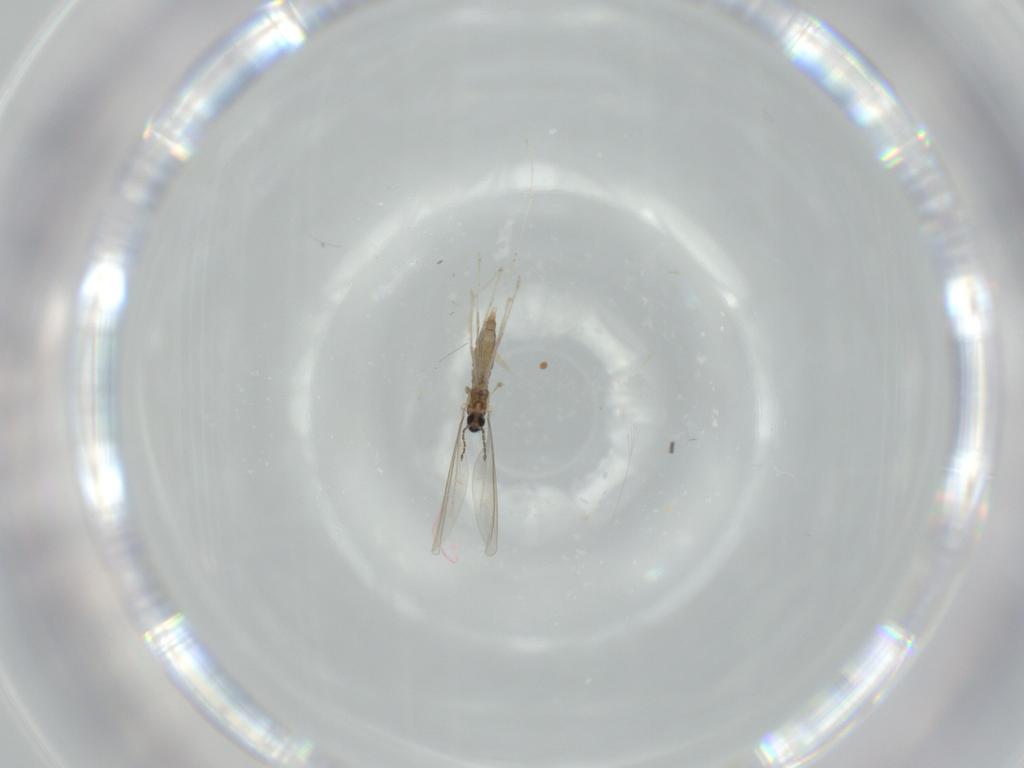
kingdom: Animalia
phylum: Arthropoda
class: Insecta
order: Diptera
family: Cecidomyiidae
